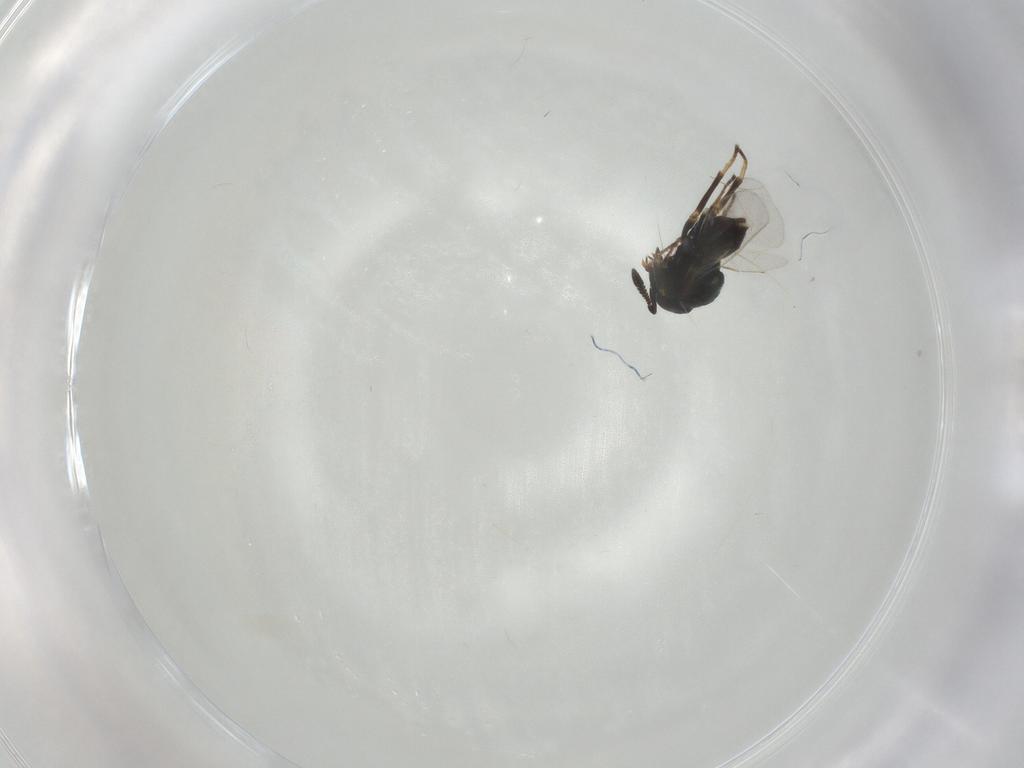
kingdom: Animalia
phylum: Arthropoda
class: Insecta
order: Hymenoptera
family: Encyrtidae
